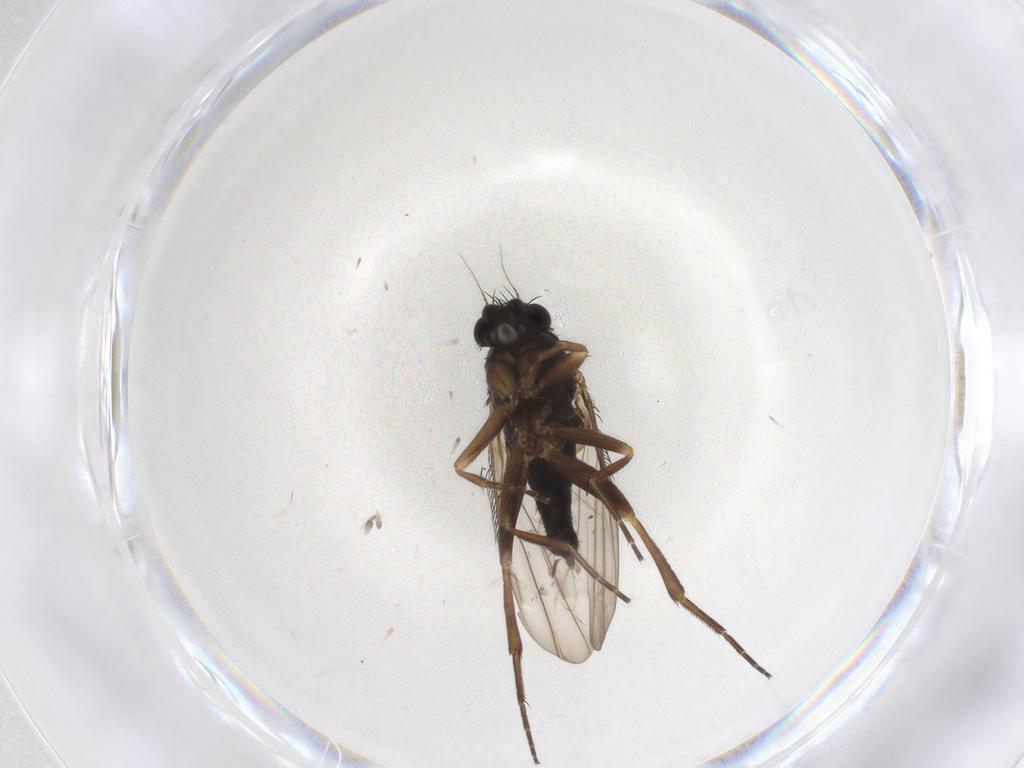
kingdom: Animalia
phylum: Arthropoda
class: Insecta
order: Diptera
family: Phoridae
